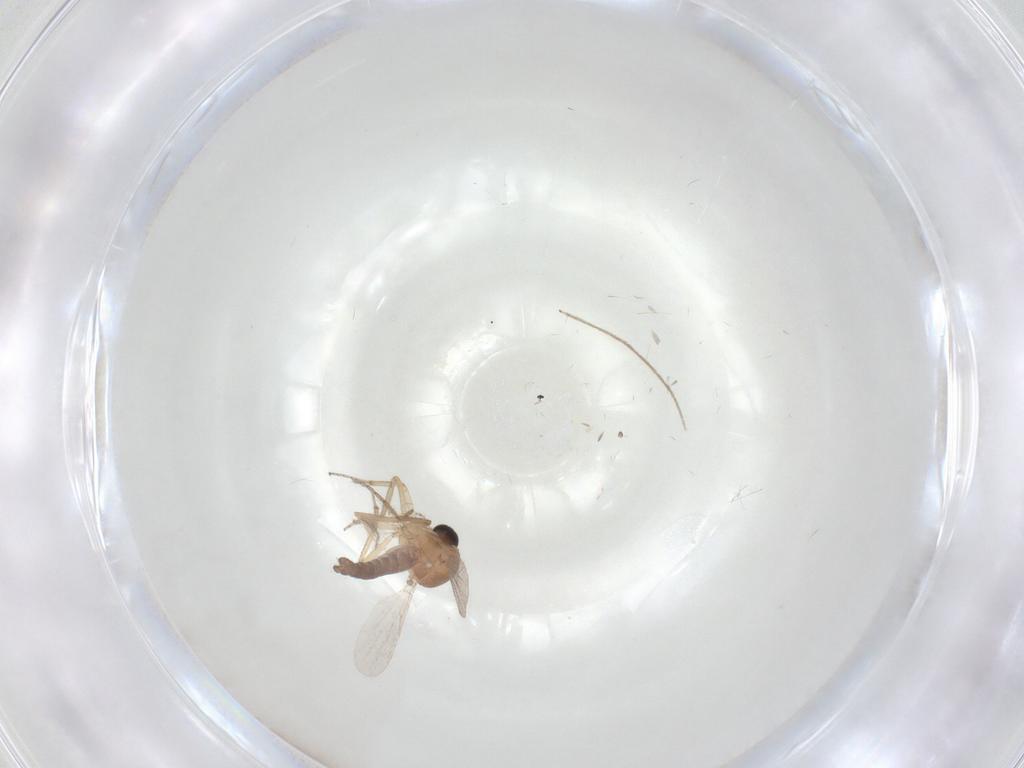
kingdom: Animalia
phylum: Arthropoda
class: Insecta
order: Diptera
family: Ceratopogonidae
